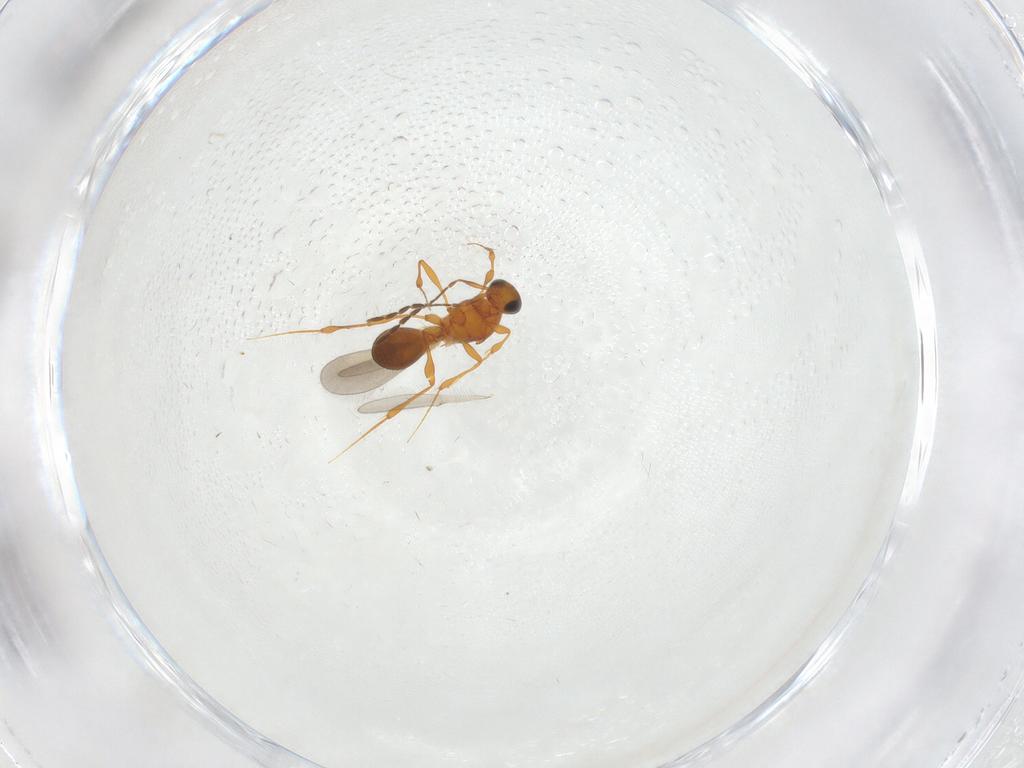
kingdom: Animalia
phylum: Arthropoda
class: Insecta
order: Hymenoptera
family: Platygastridae
